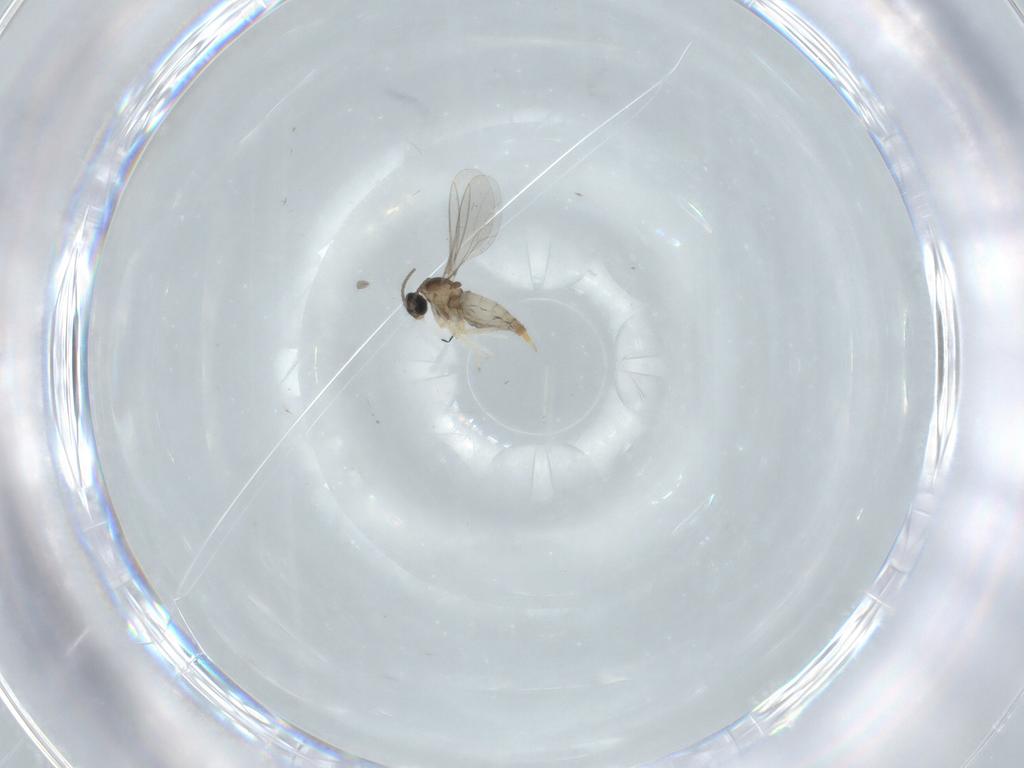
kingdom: Animalia
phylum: Arthropoda
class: Insecta
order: Diptera
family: Cecidomyiidae
